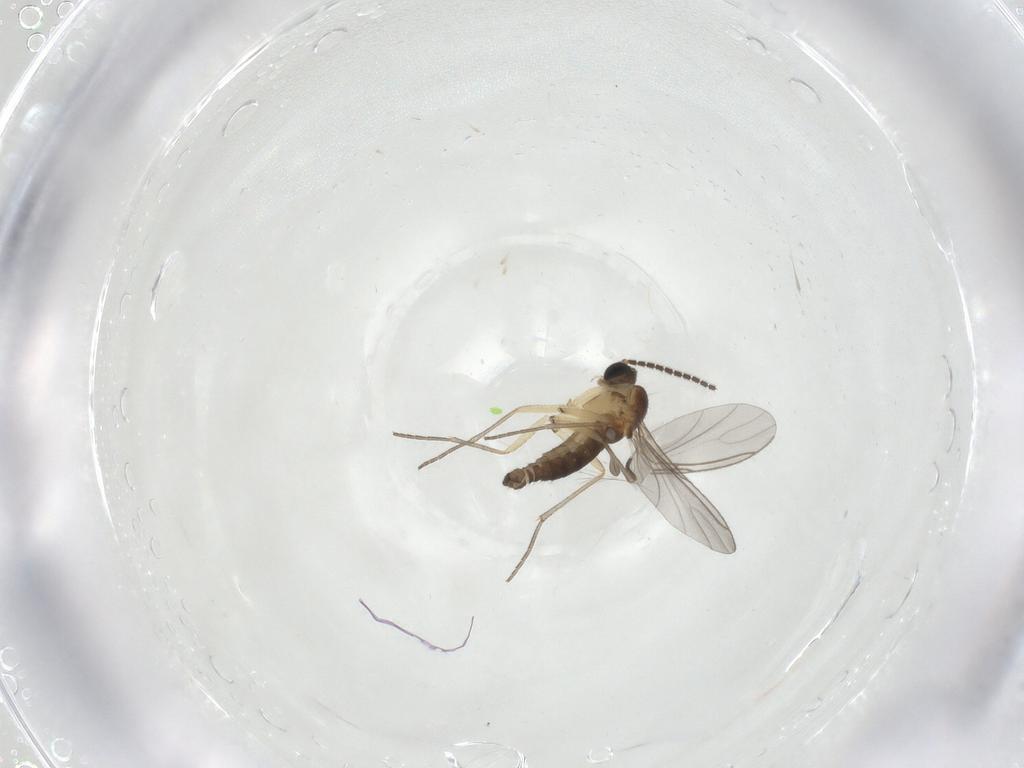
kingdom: Animalia
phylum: Arthropoda
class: Insecta
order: Diptera
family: Sciaridae
